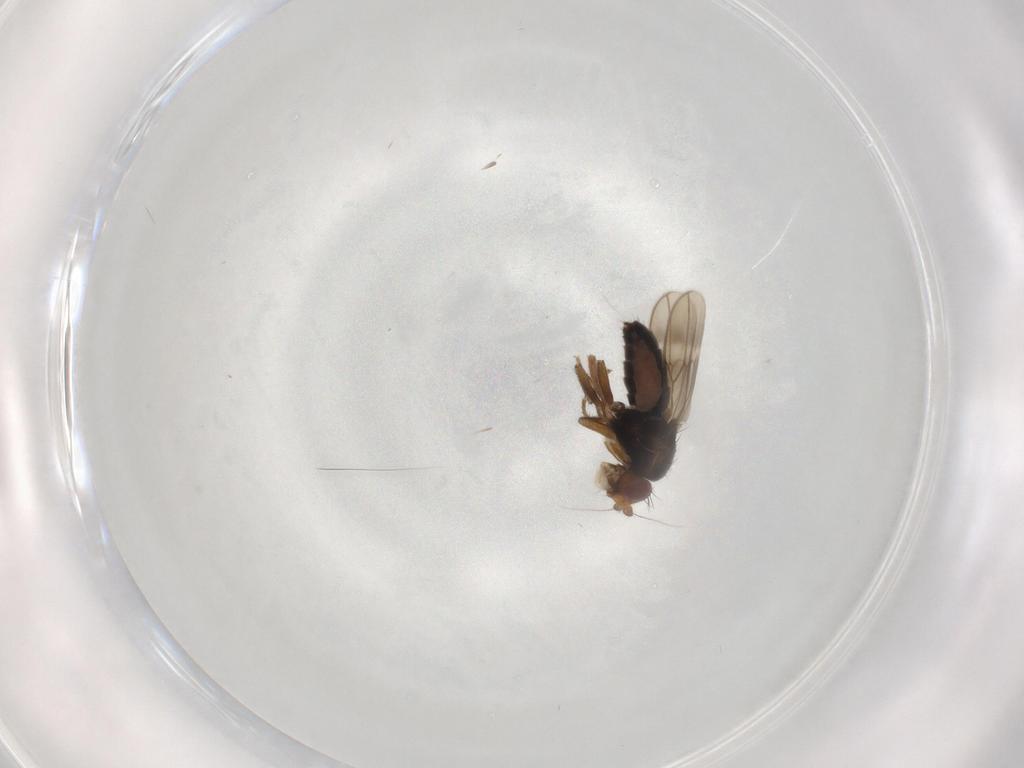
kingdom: Animalia
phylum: Arthropoda
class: Insecta
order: Diptera
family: Sphaeroceridae
